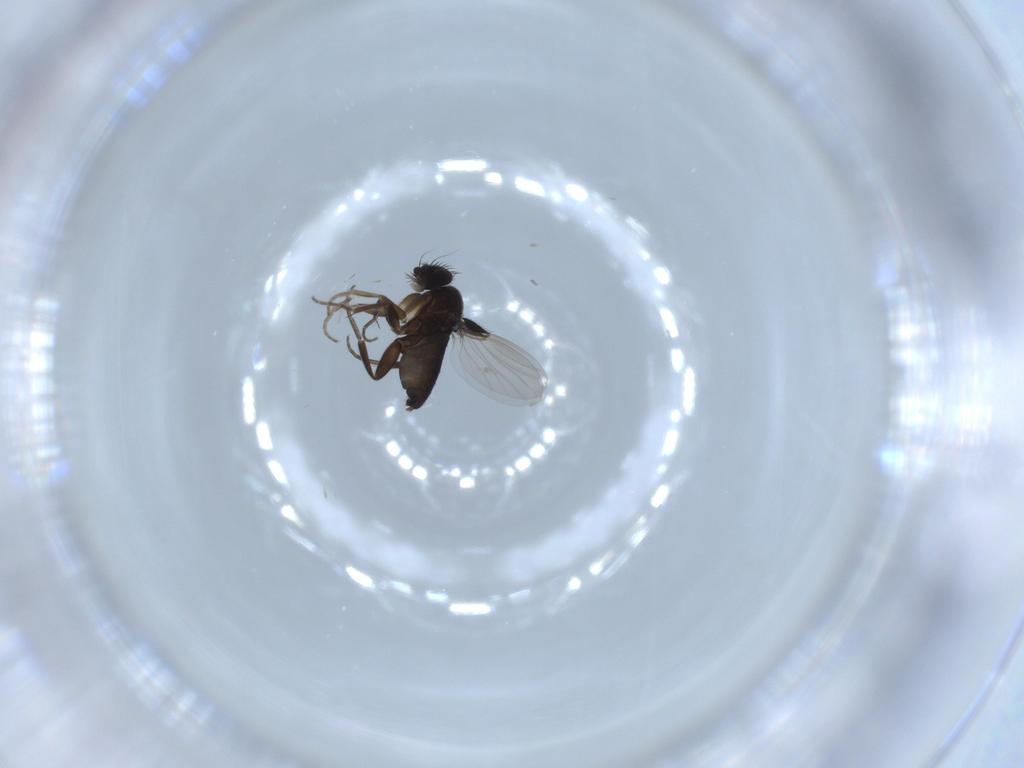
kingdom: Animalia
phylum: Arthropoda
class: Insecta
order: Diptera
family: Phoridae
